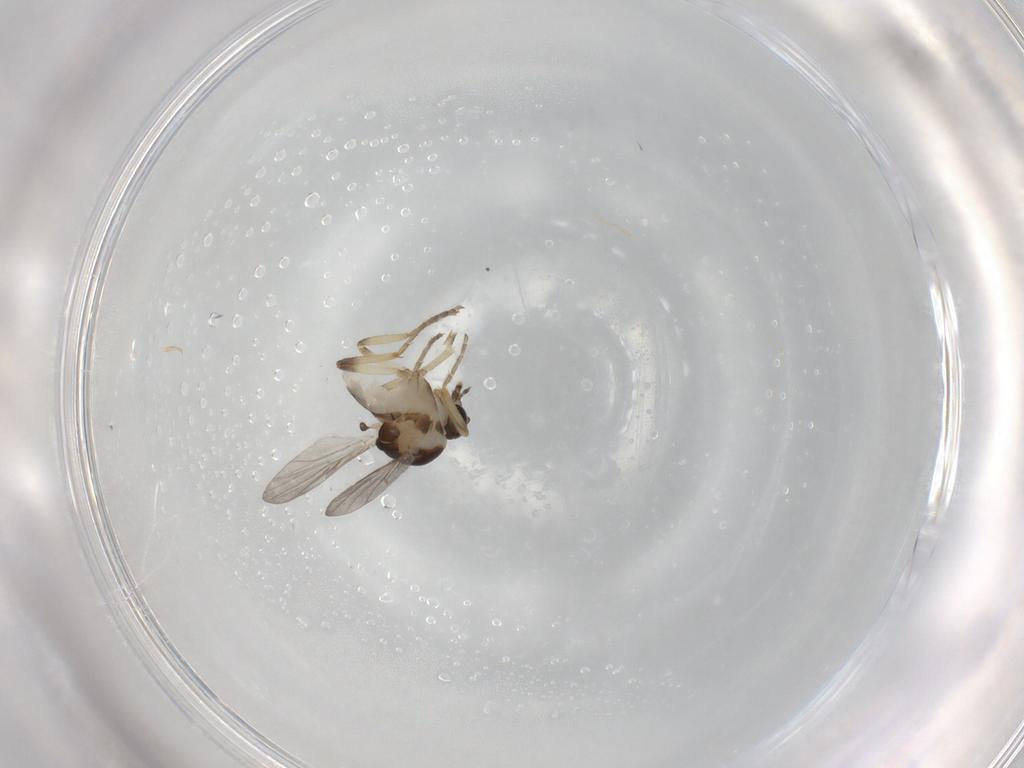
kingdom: Animalia
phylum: Arthropoda
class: Insecta
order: Diptera
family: Ceratopogonidae
